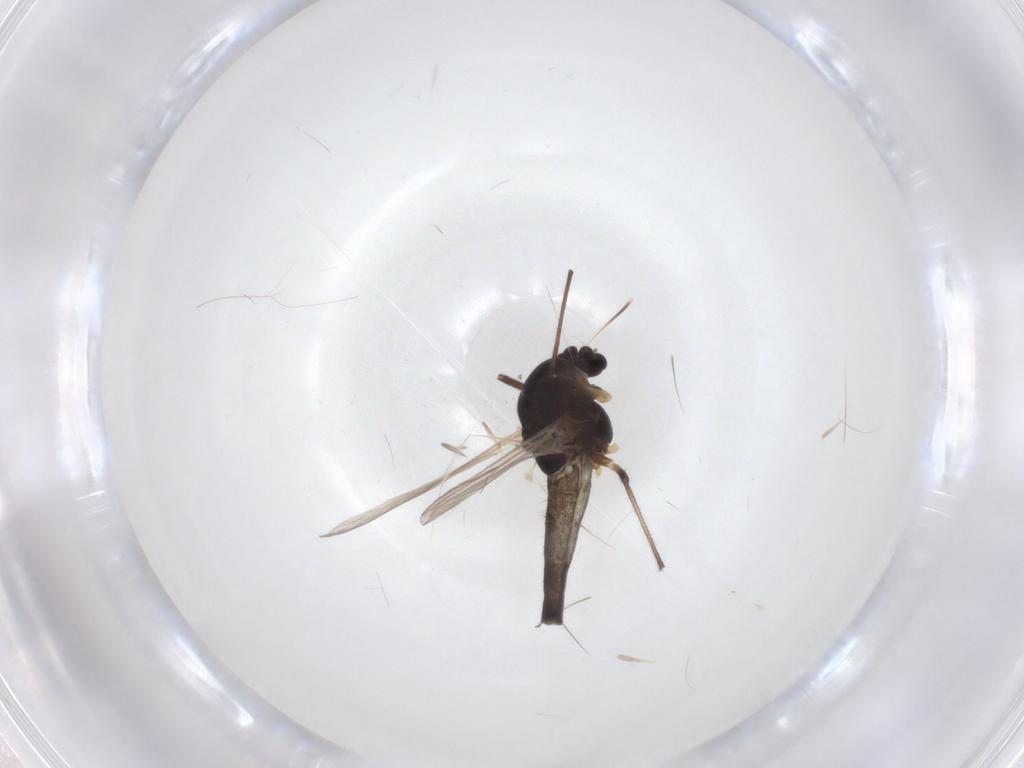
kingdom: Animalia
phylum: Arthropoda
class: Insecta
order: Diptera
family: Chironomidae
